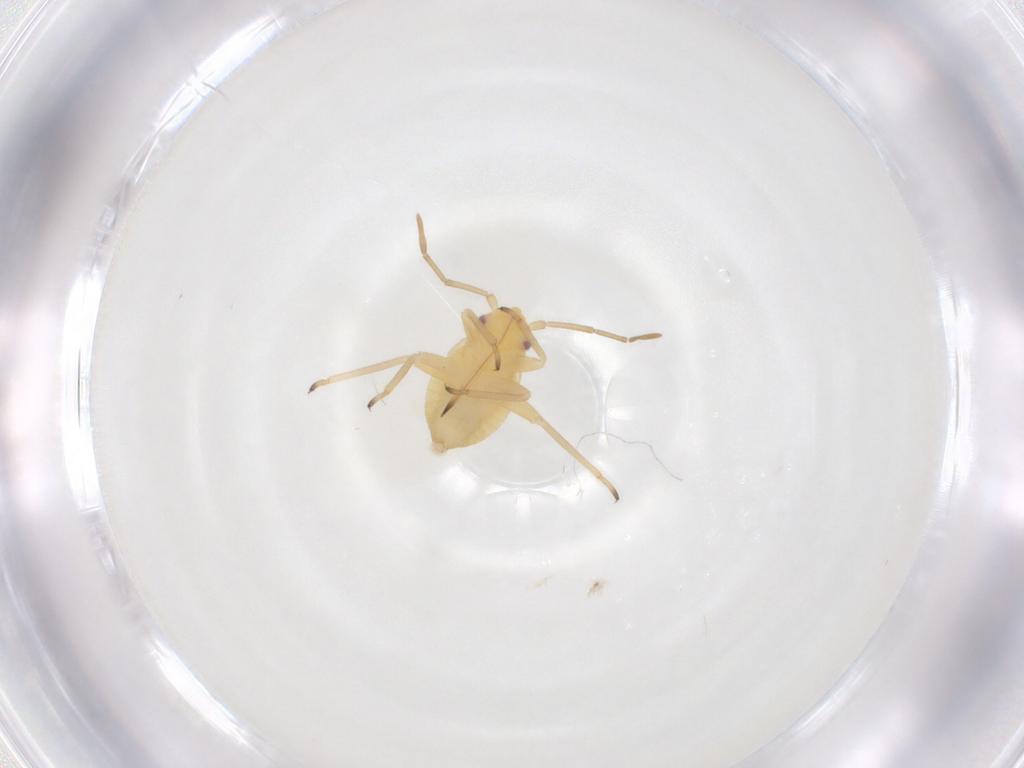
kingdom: Animalia
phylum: Arthropoda
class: Insecta
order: Hemiptera
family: Miridae
